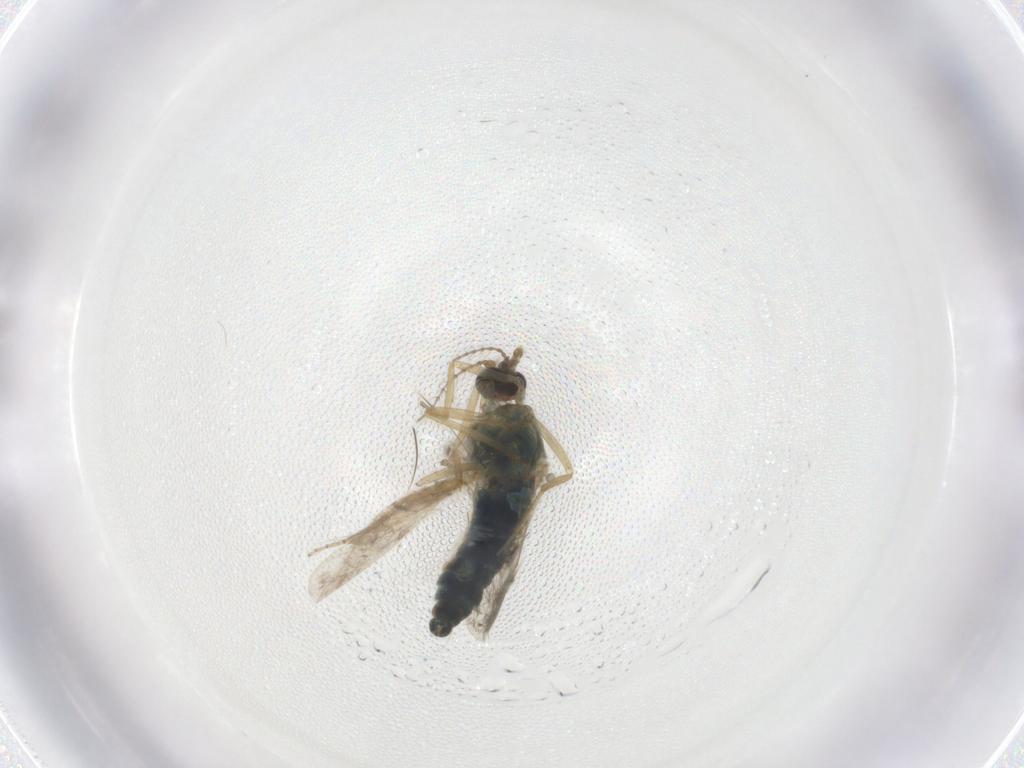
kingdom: Animalia
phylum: Arthropoda
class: Insecta
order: Diptera
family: Ceratopogonidae
